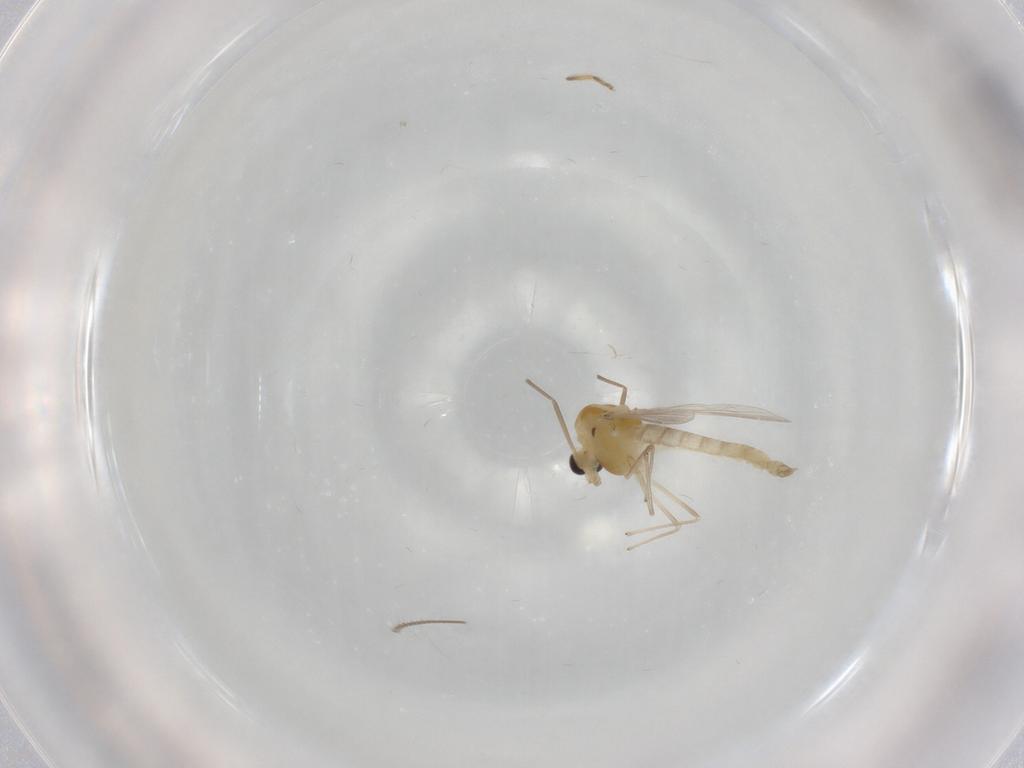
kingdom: Animalia
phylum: Arthropoda
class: Insecta
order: Diptera
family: Chironomidae
